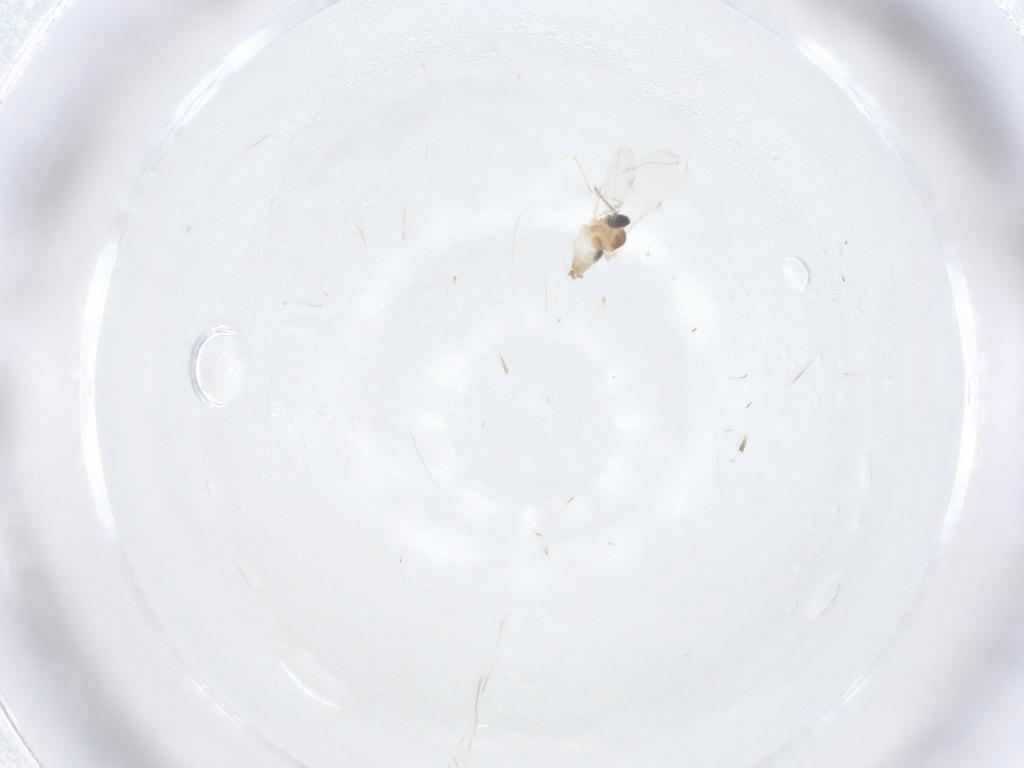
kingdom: Animalia
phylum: Arthropoda
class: Insecta
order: Diptera
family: Cecidomyiidae
